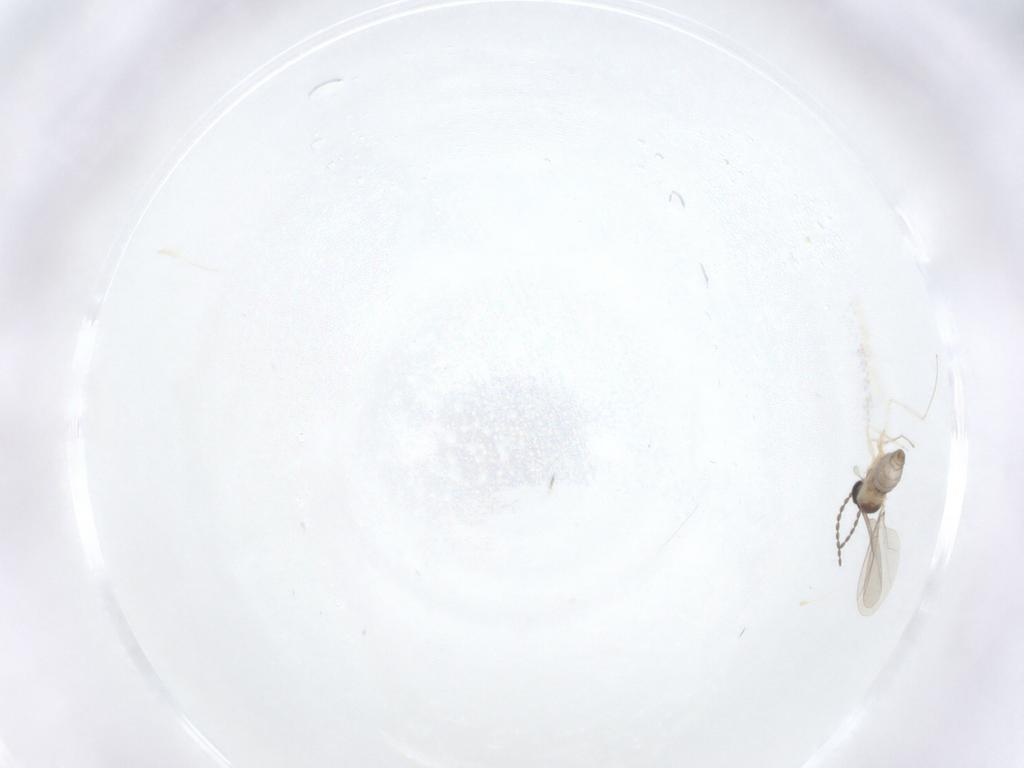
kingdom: Animalia
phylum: Arthropoda
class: Insecta
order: Diptera
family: Cecidomyiidae
